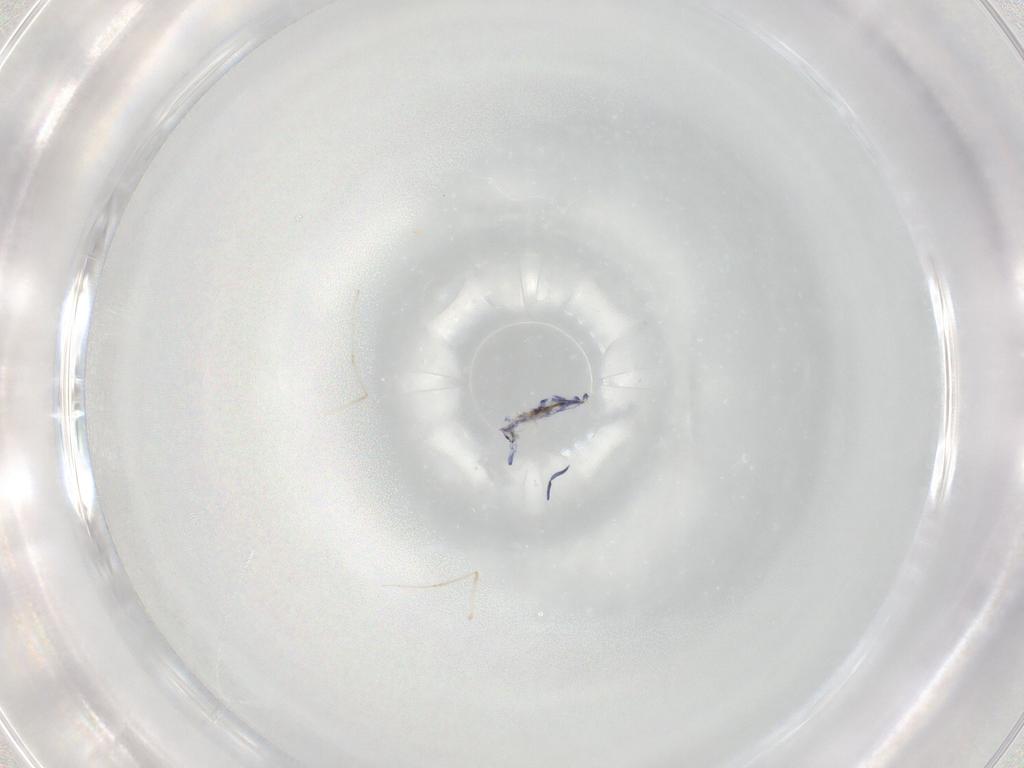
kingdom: Animalia
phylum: Arthropoda
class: Collembola
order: Entomobryomorpha
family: Entomobryidae
